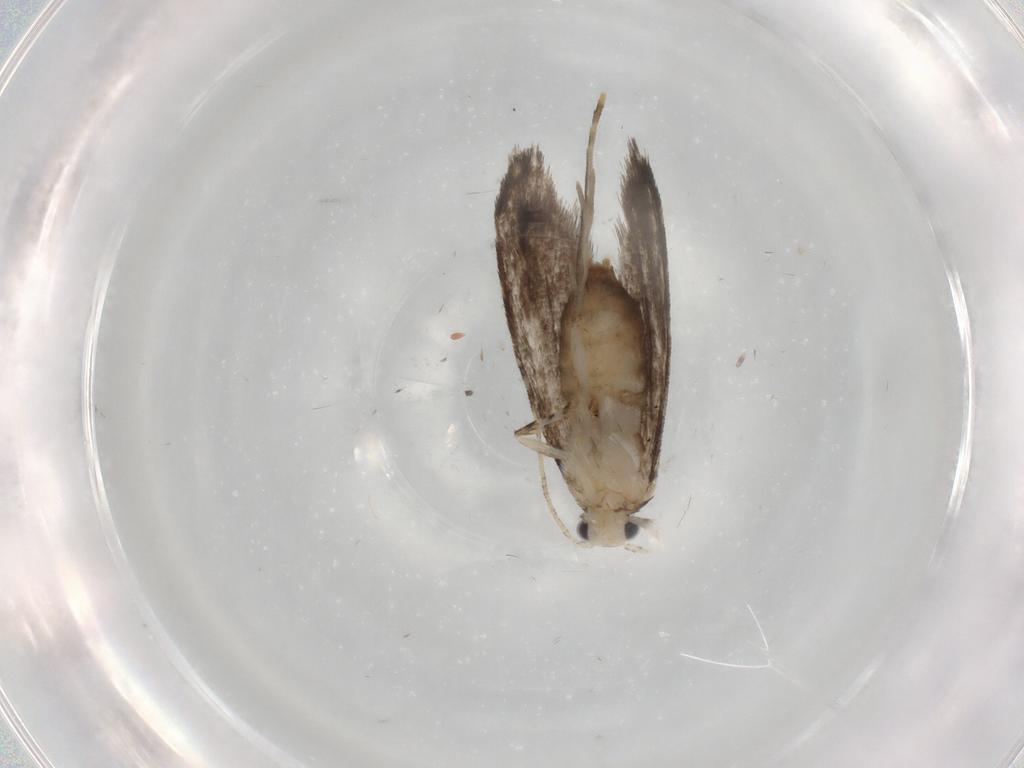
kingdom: Animalia
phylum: Arthropoda
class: Insecta
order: Lepidoptera
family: Tineidae
